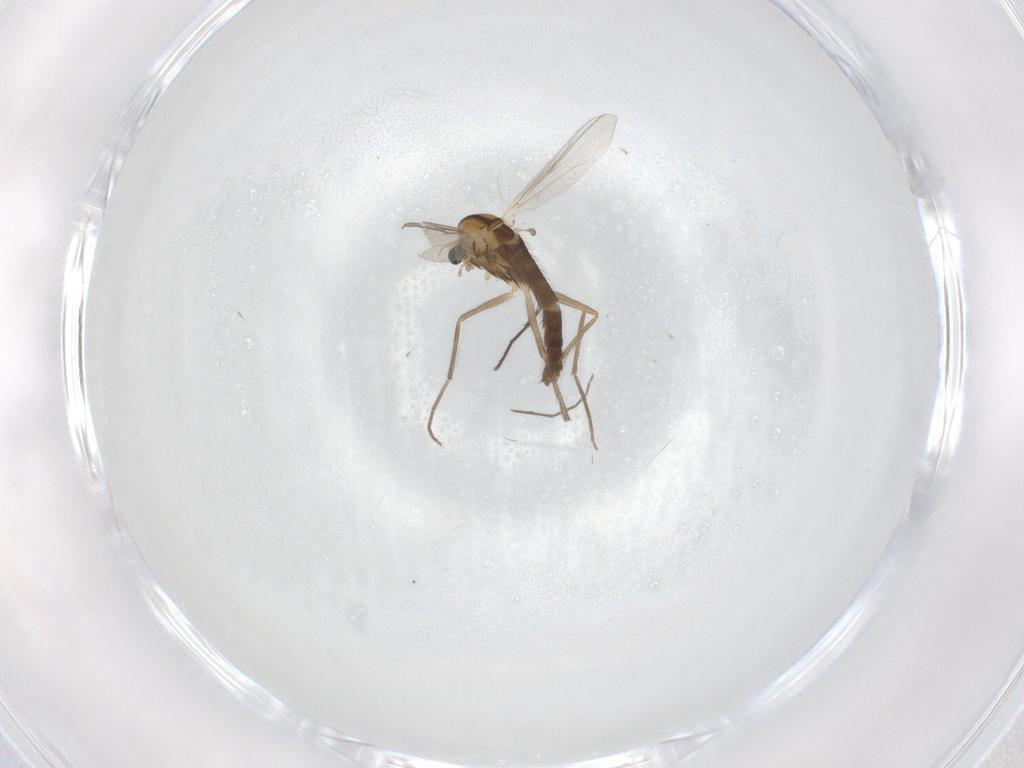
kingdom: Animalia
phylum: Arthropoda
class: Insecta
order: Diptera
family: Chironomidae
